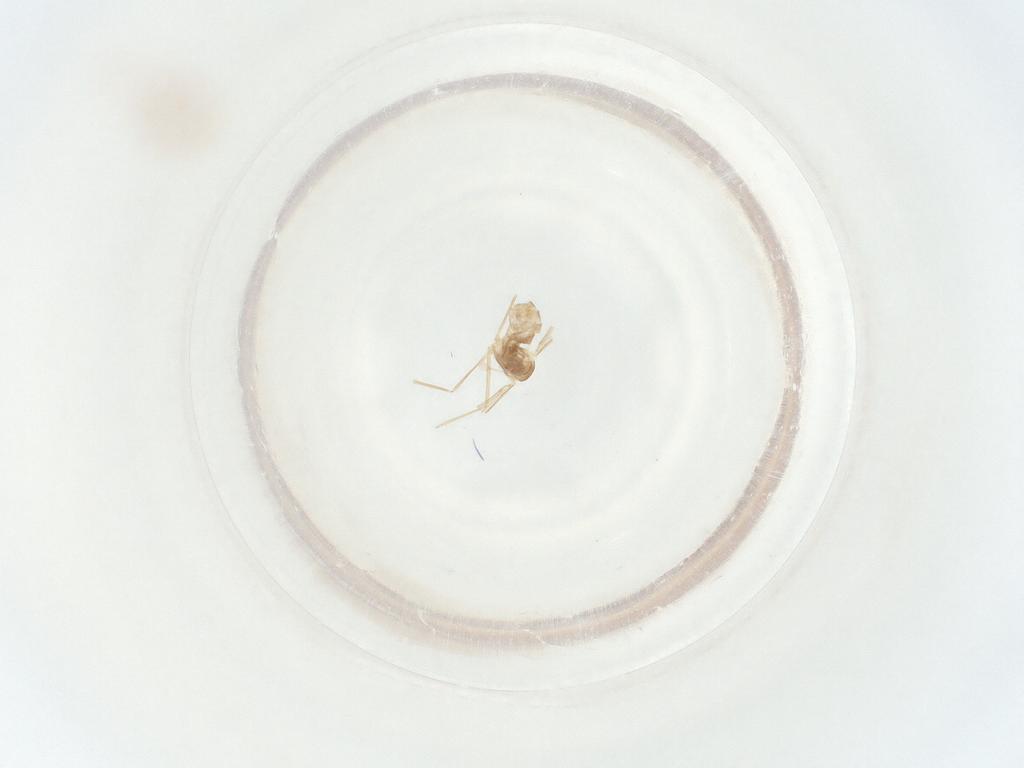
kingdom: Animalia
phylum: Arthropoda
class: Insecta
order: Diptera
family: Cecidomyiidae
